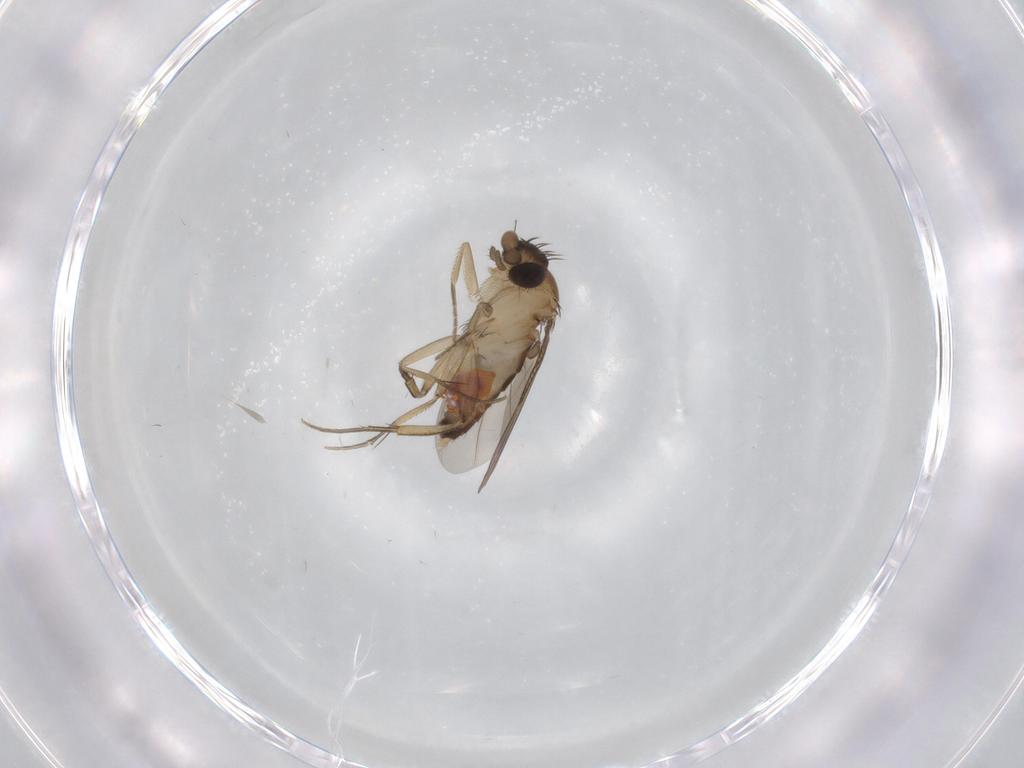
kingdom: Animalia
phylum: Arthropoda
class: Insecta
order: Diptera
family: Phoridae
